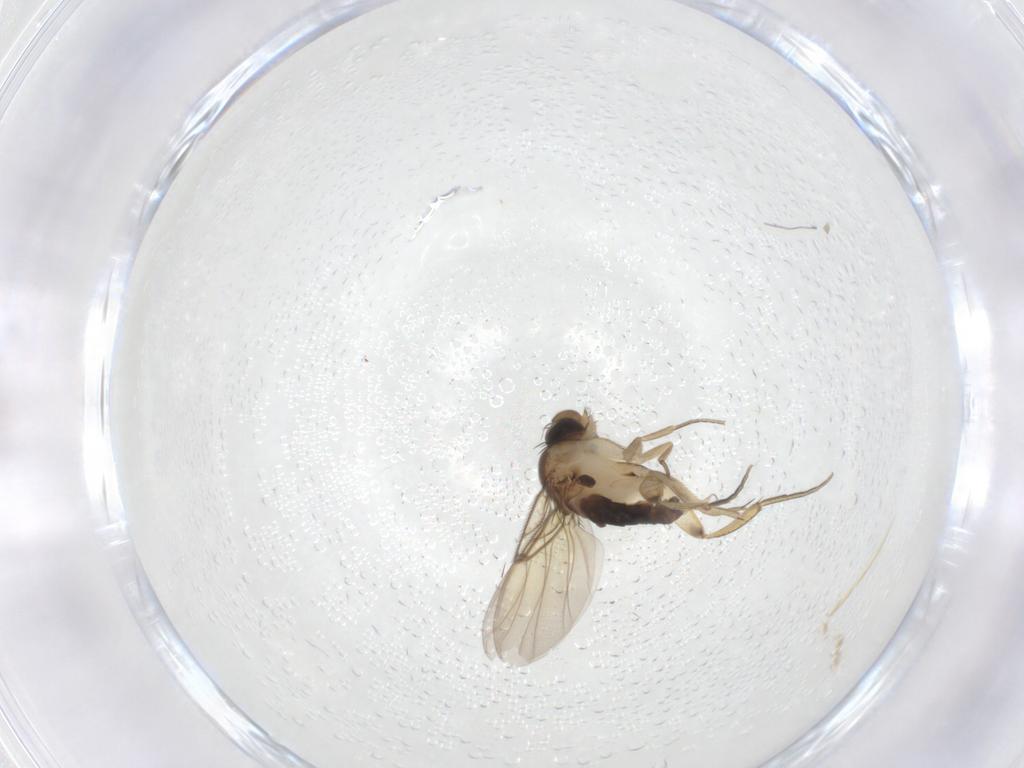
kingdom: Animalia
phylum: Arthropoda
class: Insecta
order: Diptera
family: Phoridae
